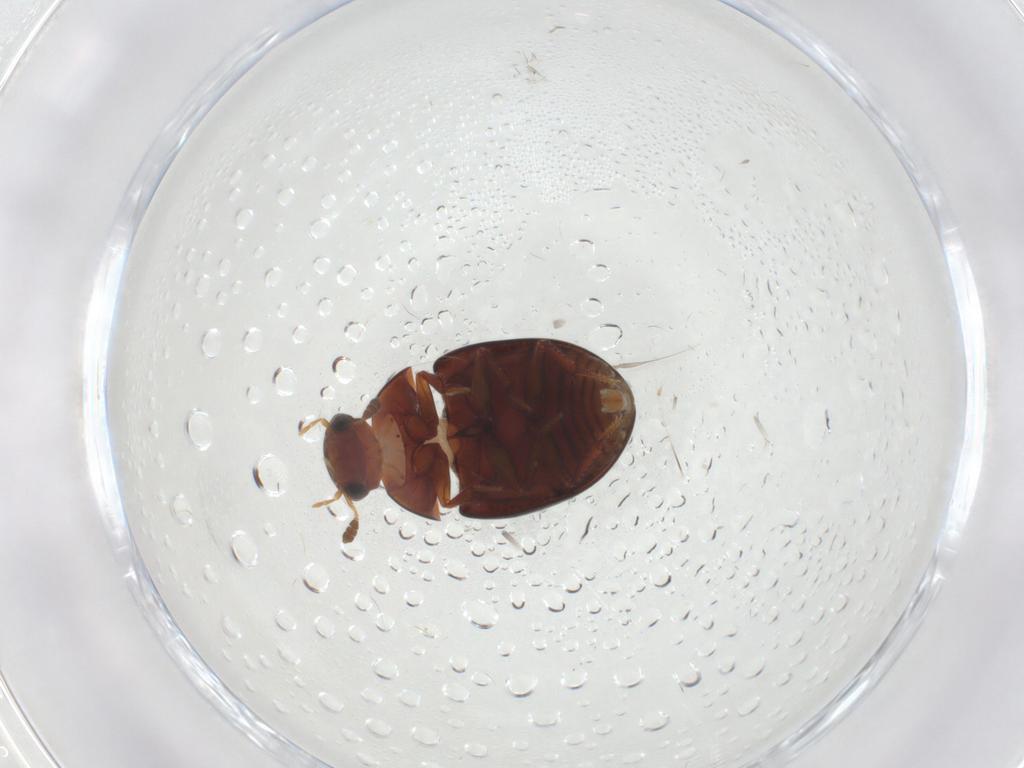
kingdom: Animalia
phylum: Arthropoda
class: Insecta
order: Coleoptera
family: Hydrophilidae
